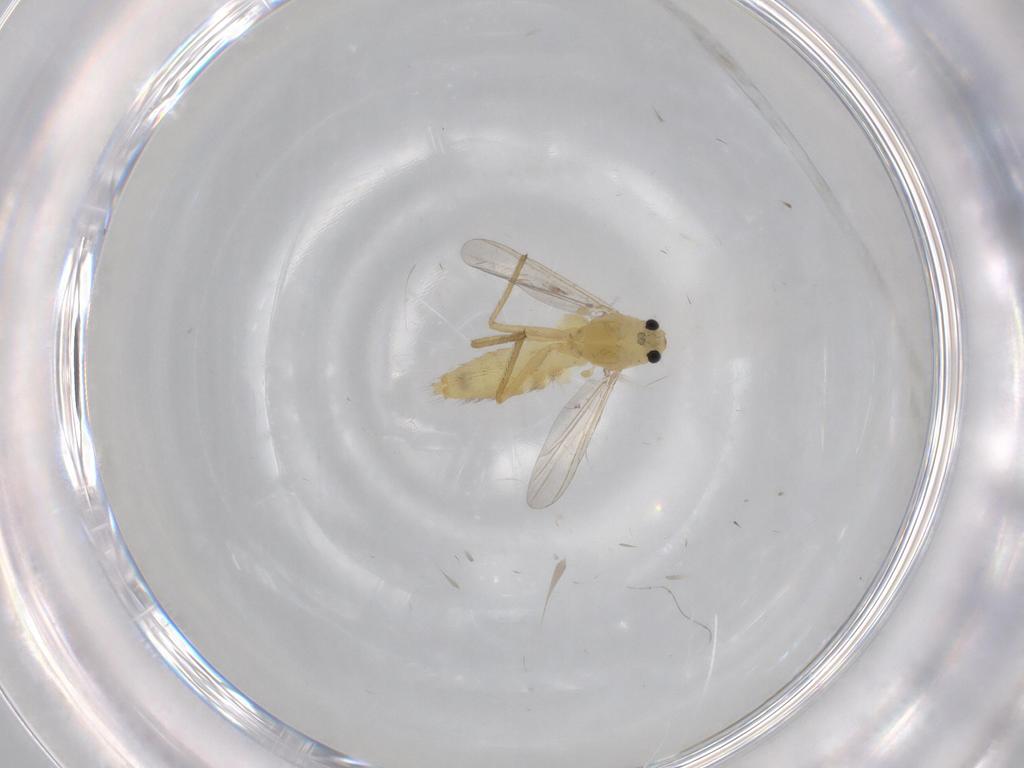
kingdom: Animalia
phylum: Arthropoda
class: Insecta
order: Diptera
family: Chironomidae
